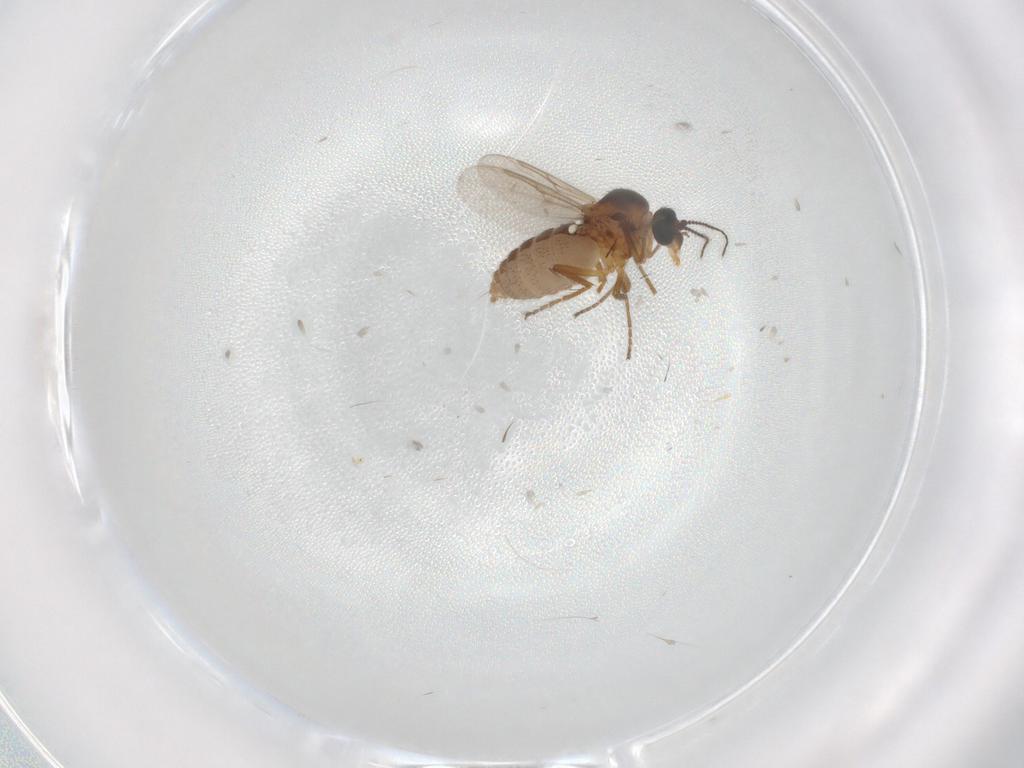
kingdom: Animalia
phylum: Arthropoda
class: Insecta
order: Diptera
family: Ceratopogonidae
